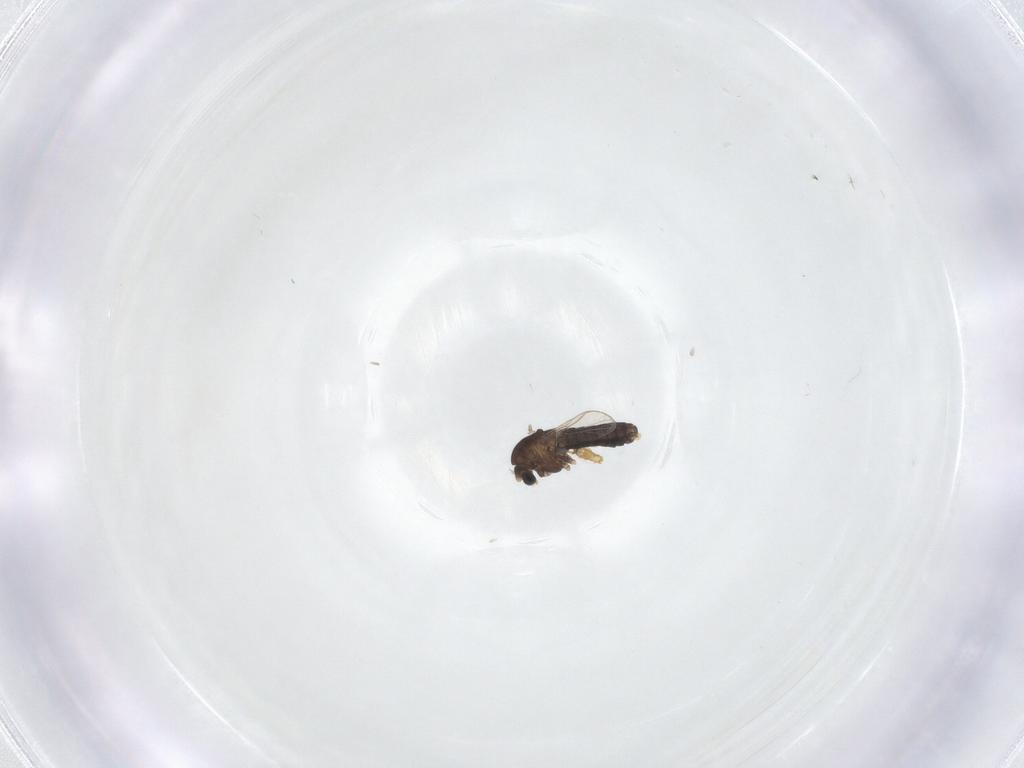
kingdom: Animalia
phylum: Arthropoda
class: Insecta
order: Diptera
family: Chironomidae
